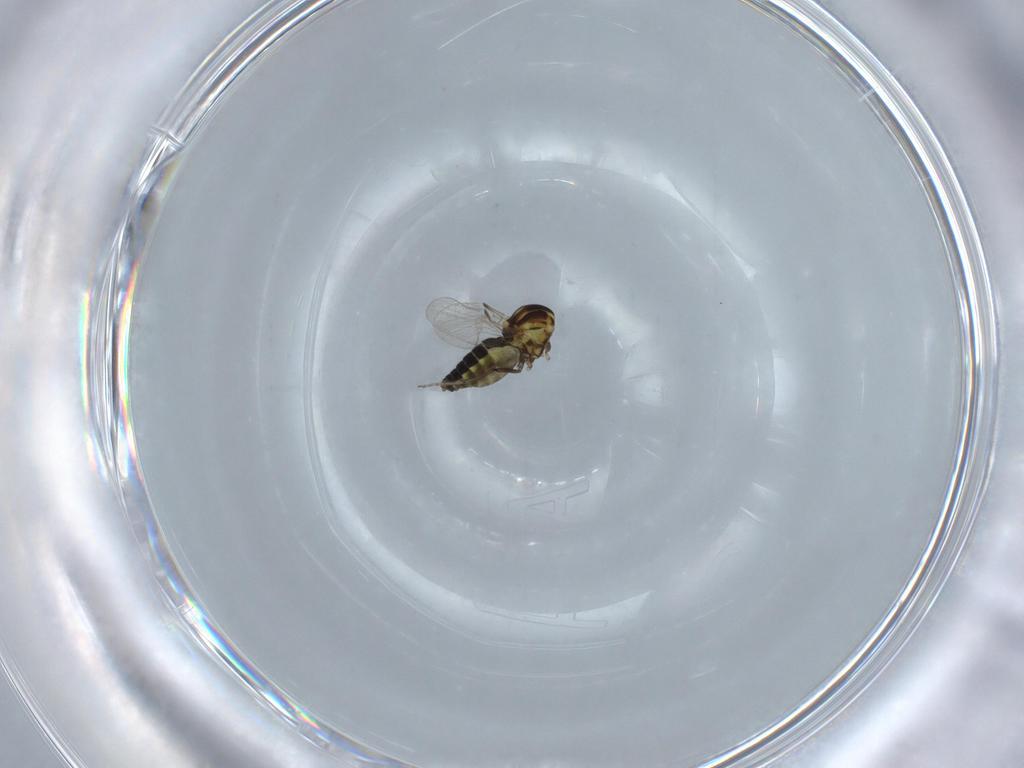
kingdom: Animalia
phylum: Arthropoda
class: Insecta
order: Diptera
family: Ceratopogonidae
